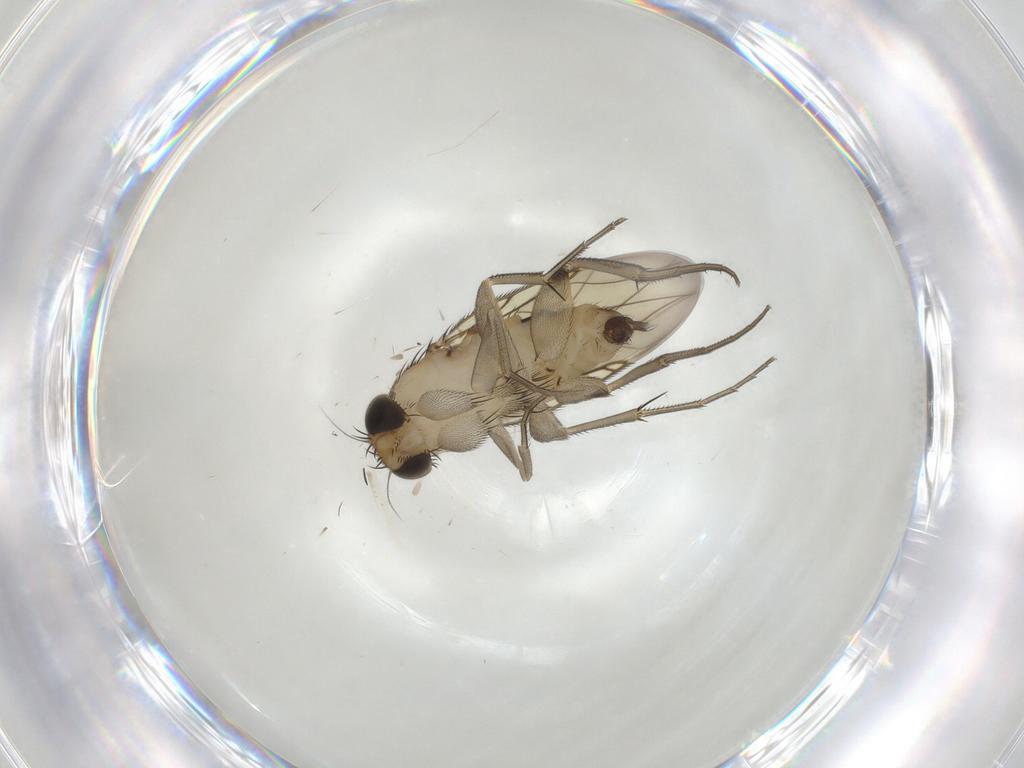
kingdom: Animalia
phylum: Arthropoda
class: Insecta
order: Diptera
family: Phoridae
